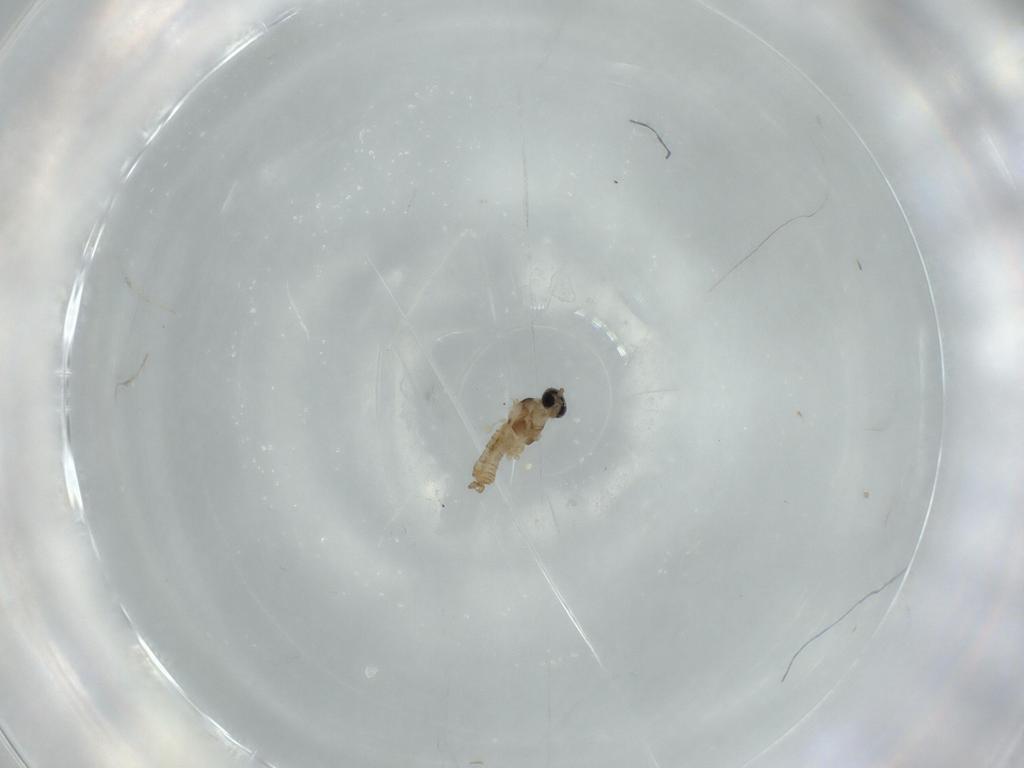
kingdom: Animalia
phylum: Arthropoda
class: Insecta
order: Diptera
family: Cecidomyiidae
